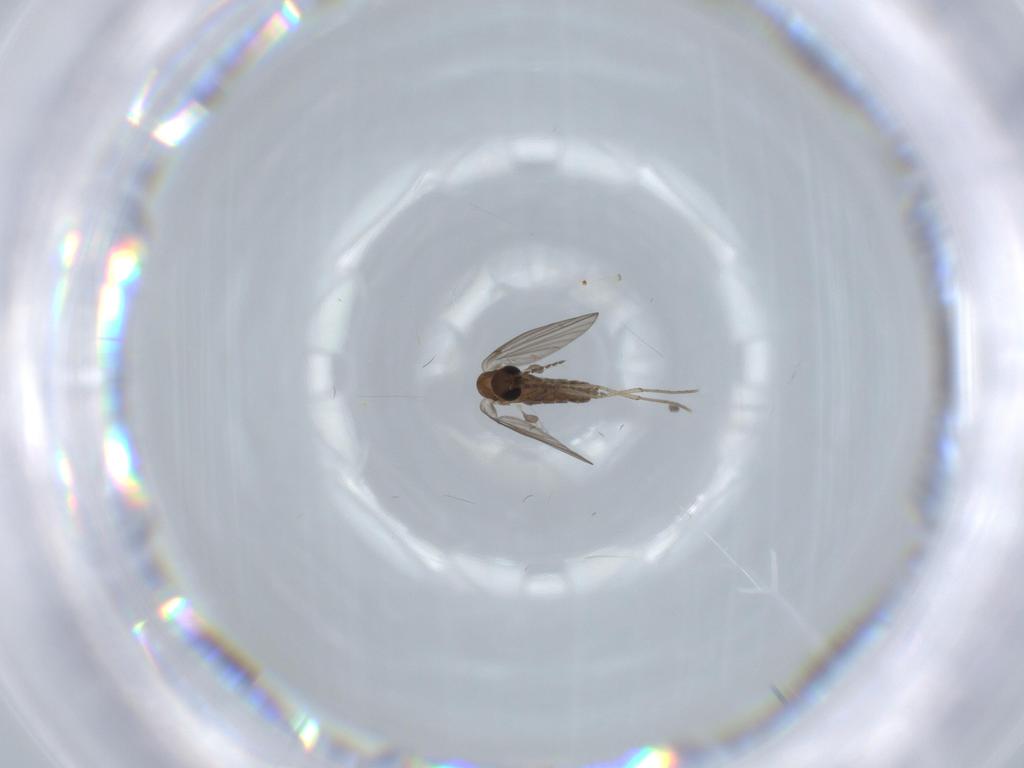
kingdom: Animalia
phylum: Arthropoda
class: Insecta
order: Diptera
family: Psychodidae
